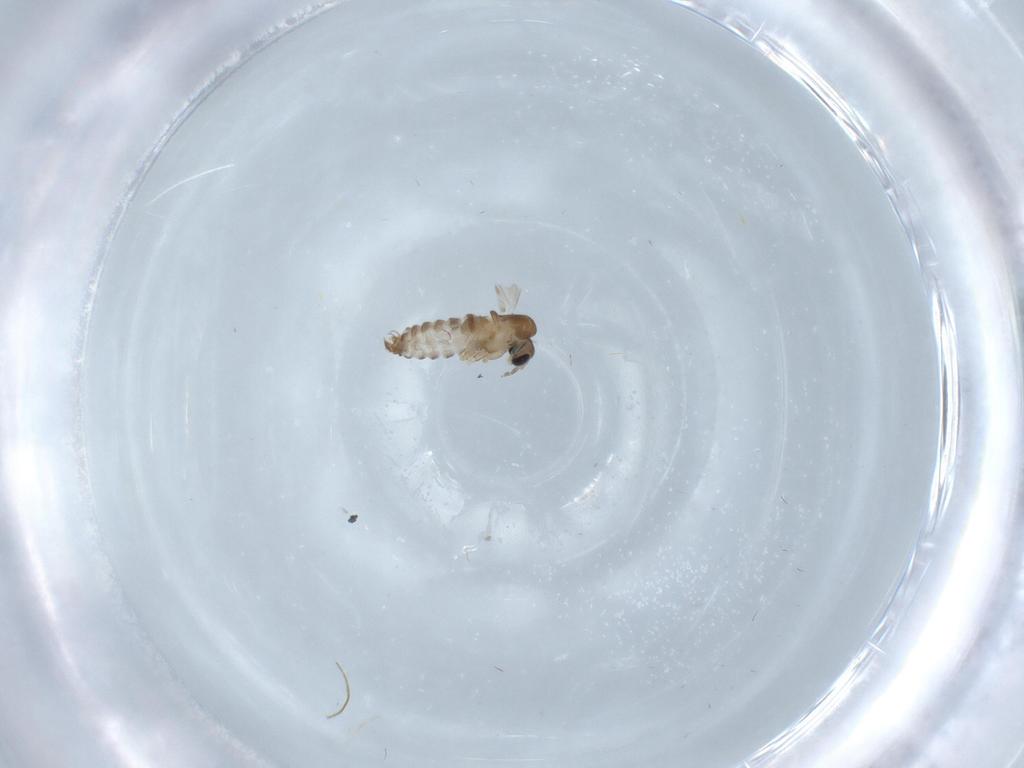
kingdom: Animalia
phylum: Arthropoda
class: Insecta
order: Diptera
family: Psychodidae
